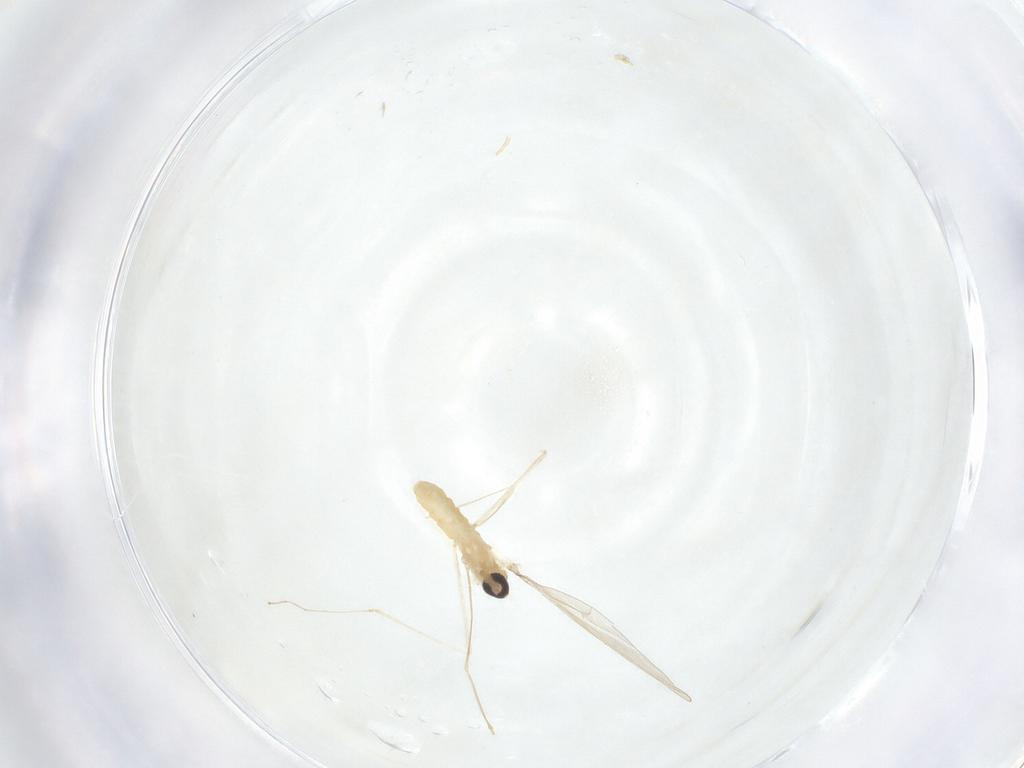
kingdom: Animalia
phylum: Arthropoda
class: Insecta
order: Diptera
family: Cecidomyiidae
